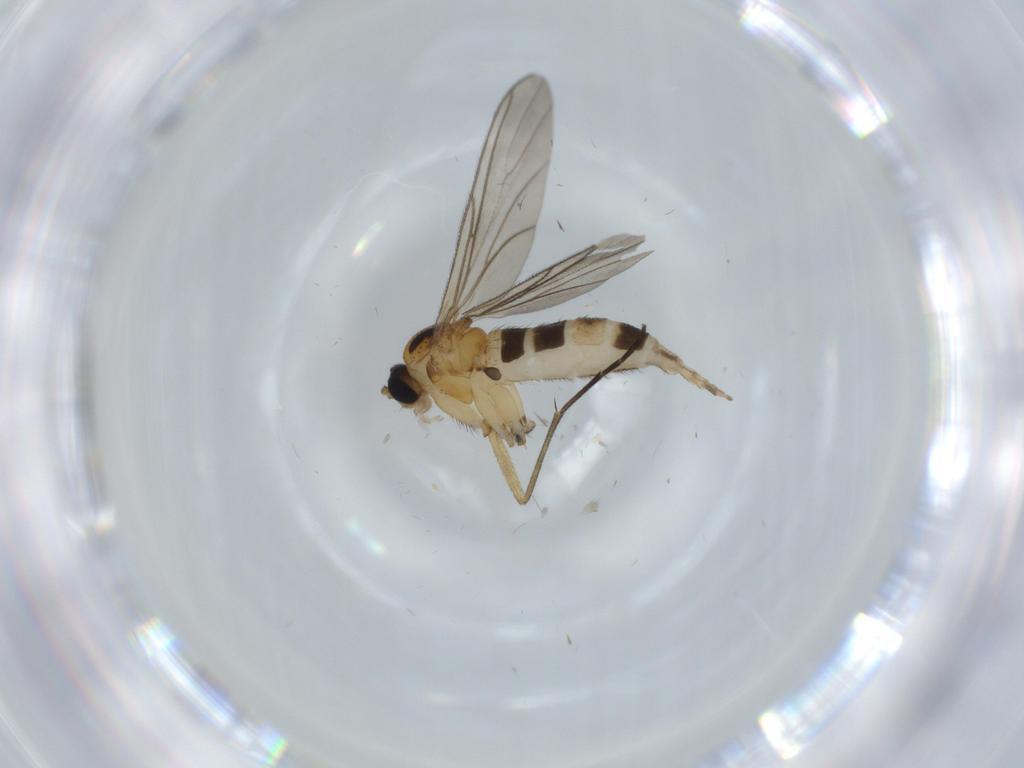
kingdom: Animalia
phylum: Arthropoda
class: Insecta
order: Diptera
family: Sciaridae
